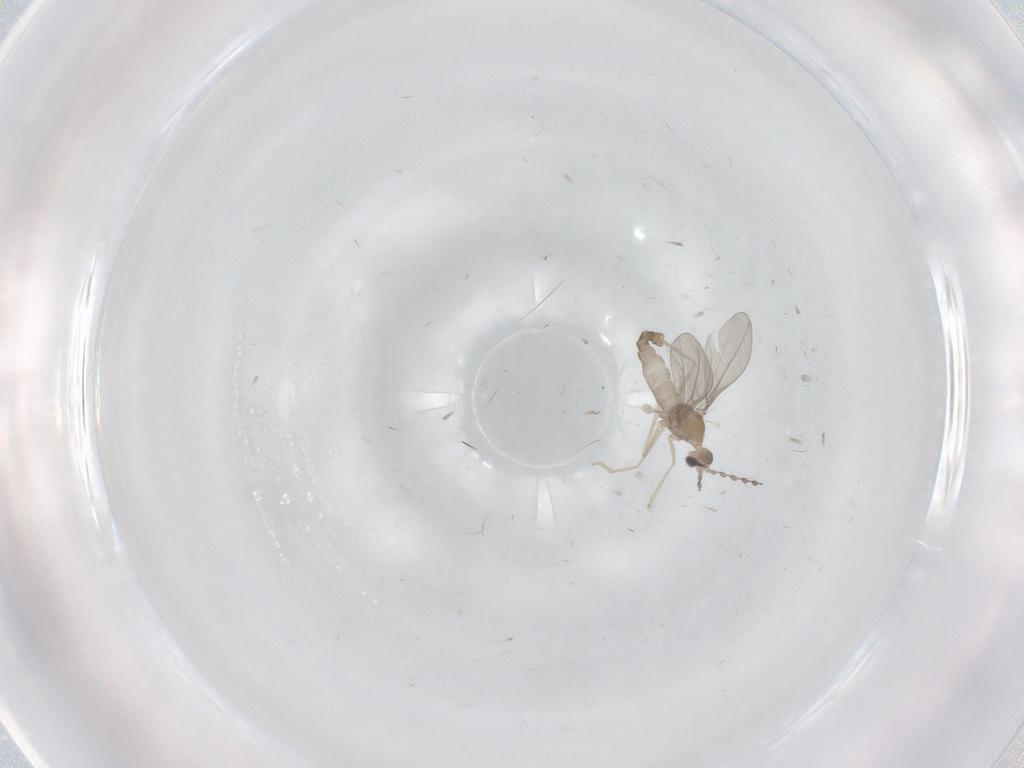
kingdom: Animalia
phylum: Arthropoda
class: Insecta
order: Diptera
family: Cecidomyiidae
